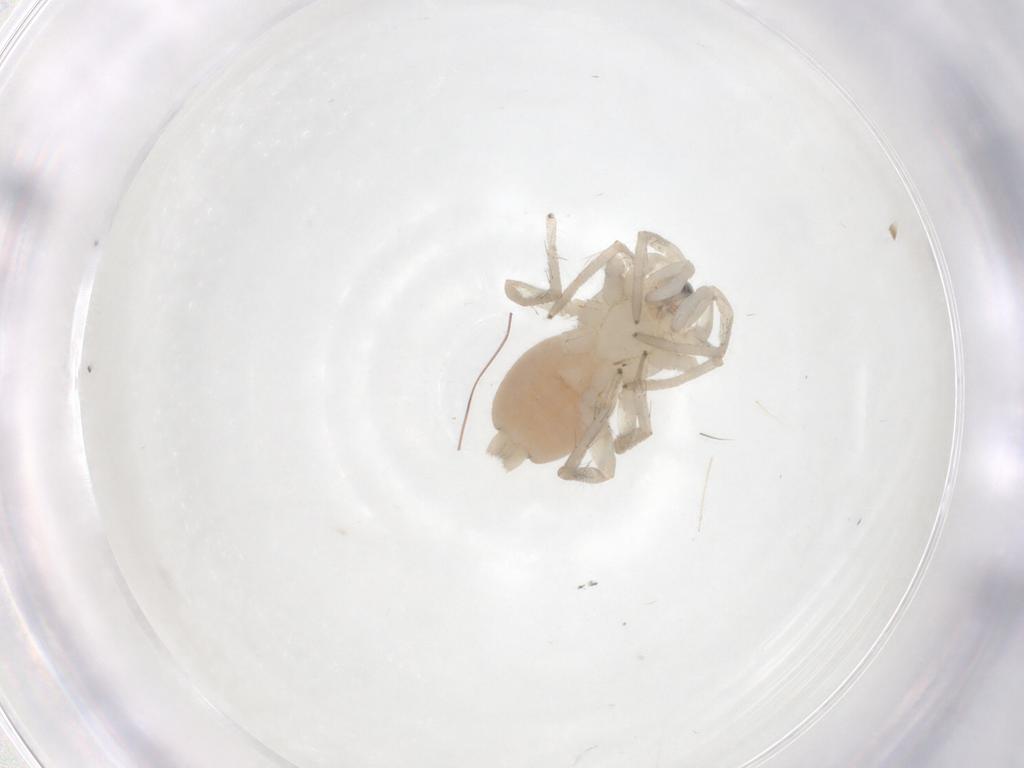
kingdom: Animalia
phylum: Arthropoda
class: Arachnida
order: Araneae
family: Gnaphosidae
